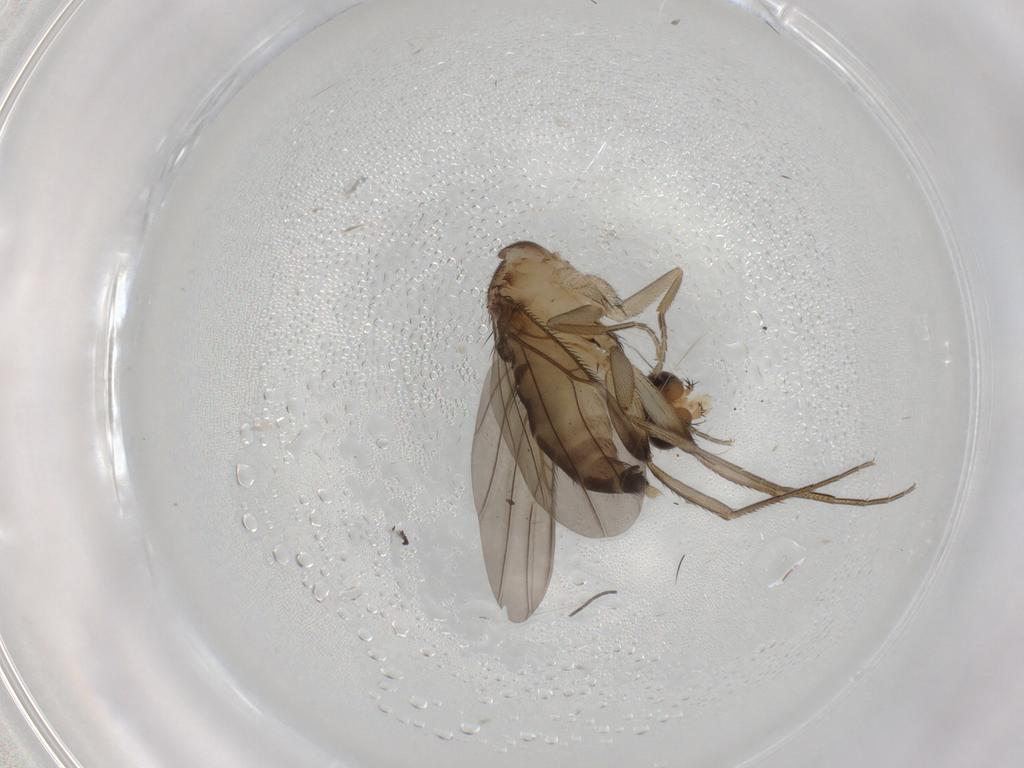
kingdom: Animalia
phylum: Arthropoda
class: Insecta
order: Diptera
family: Phoridae
